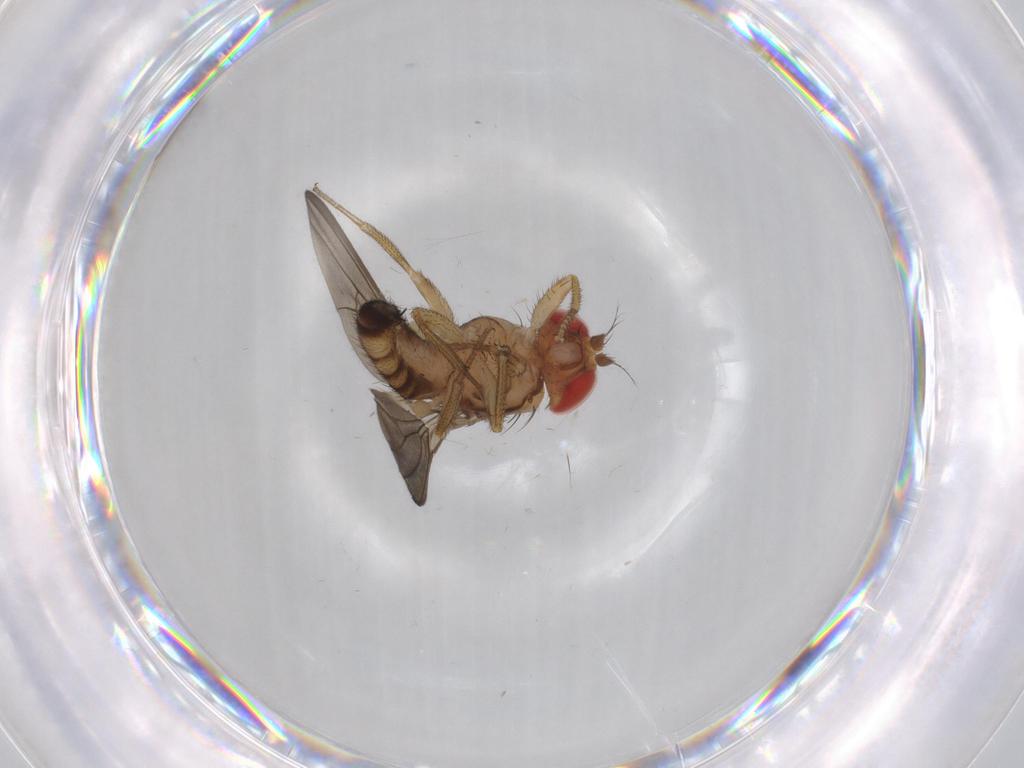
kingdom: Animalia
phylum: Arthropoda
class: Insecta
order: Diptera
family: Drosophilidae
